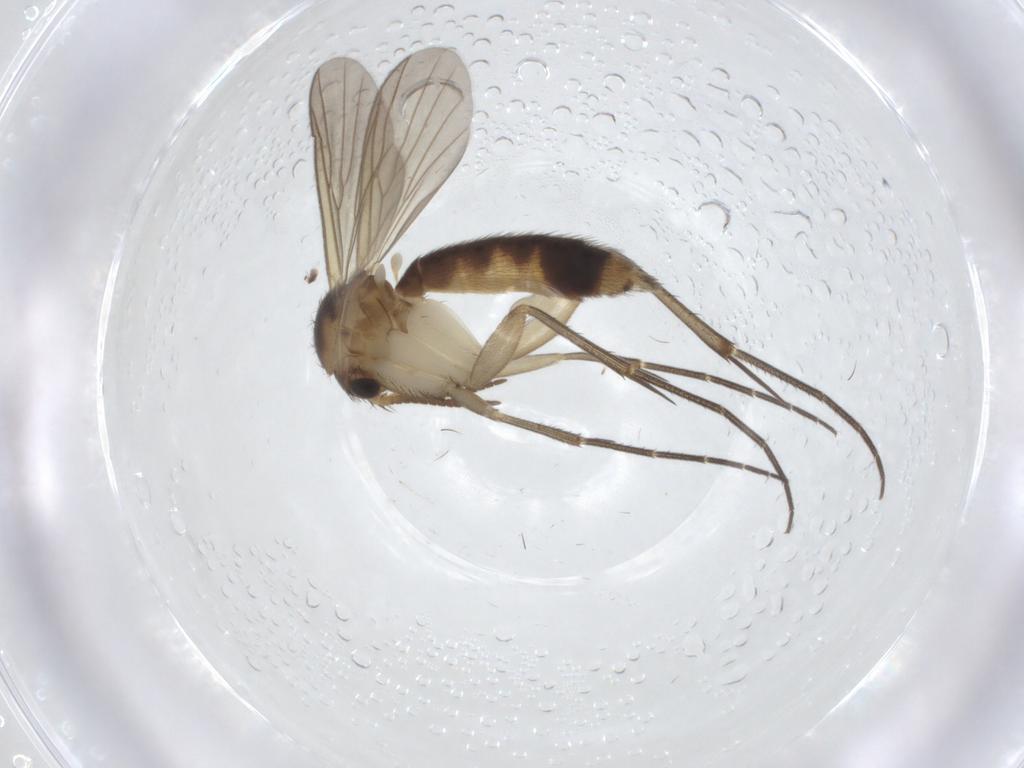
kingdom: Animalia
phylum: Arthropoda
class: Insecta
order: Diptera
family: Mycetophilidae
